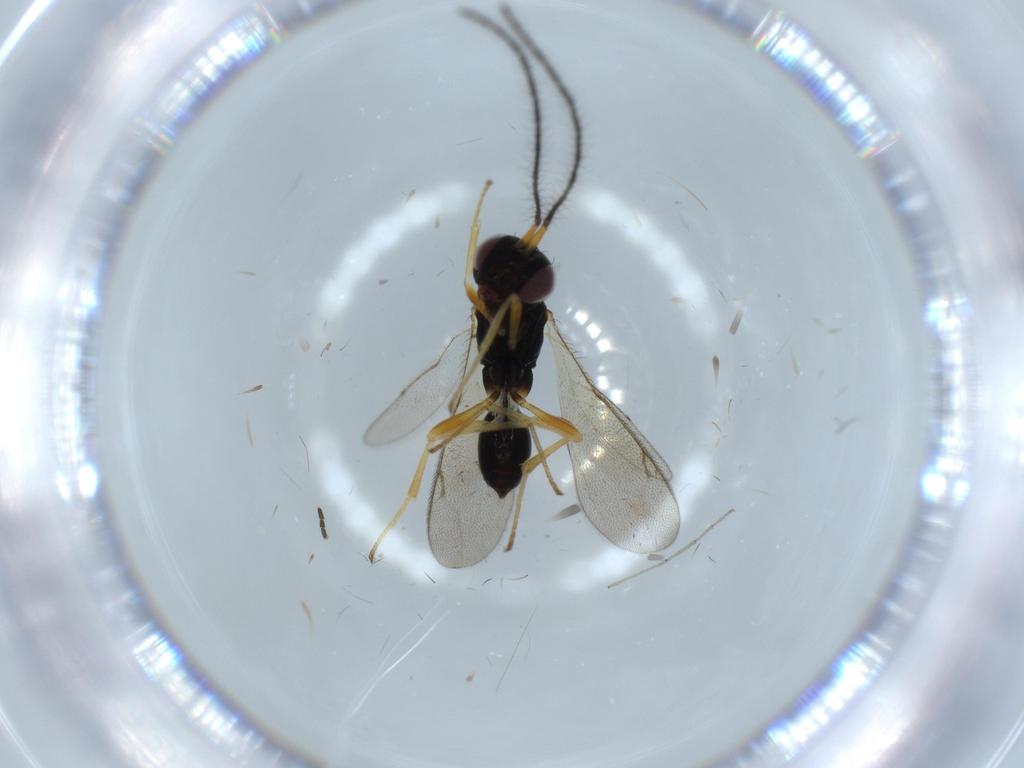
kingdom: Animalia
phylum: Arthropoda
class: Insecta
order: Hymenoptera
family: Scelionidae
